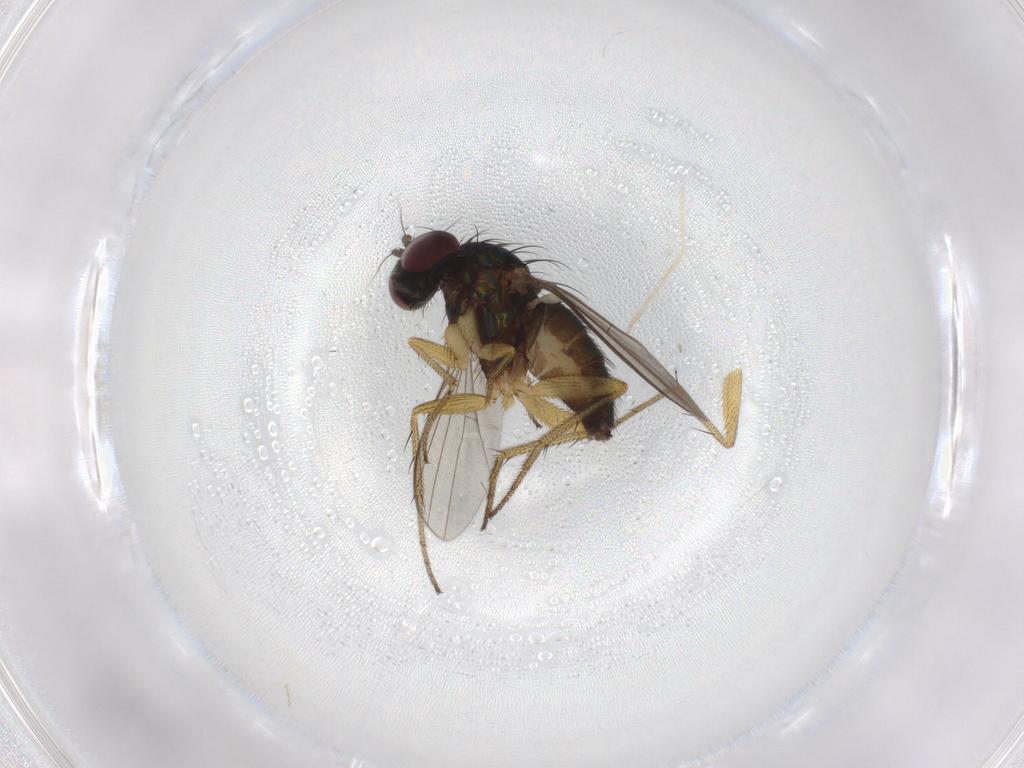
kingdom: Animalia
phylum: Arthropoda
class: Insecta
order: Diptera
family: Dolichopodidae
